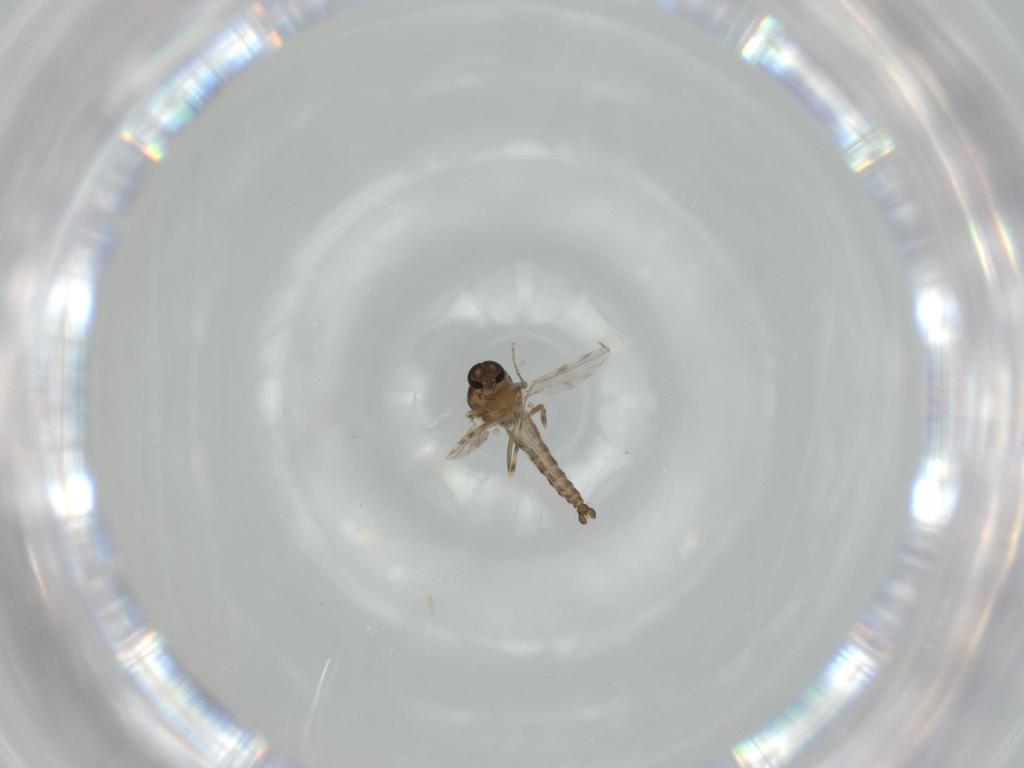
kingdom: Animalia
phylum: Arthropoda
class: Insecta
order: Diptera
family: Ceratopogonidae
